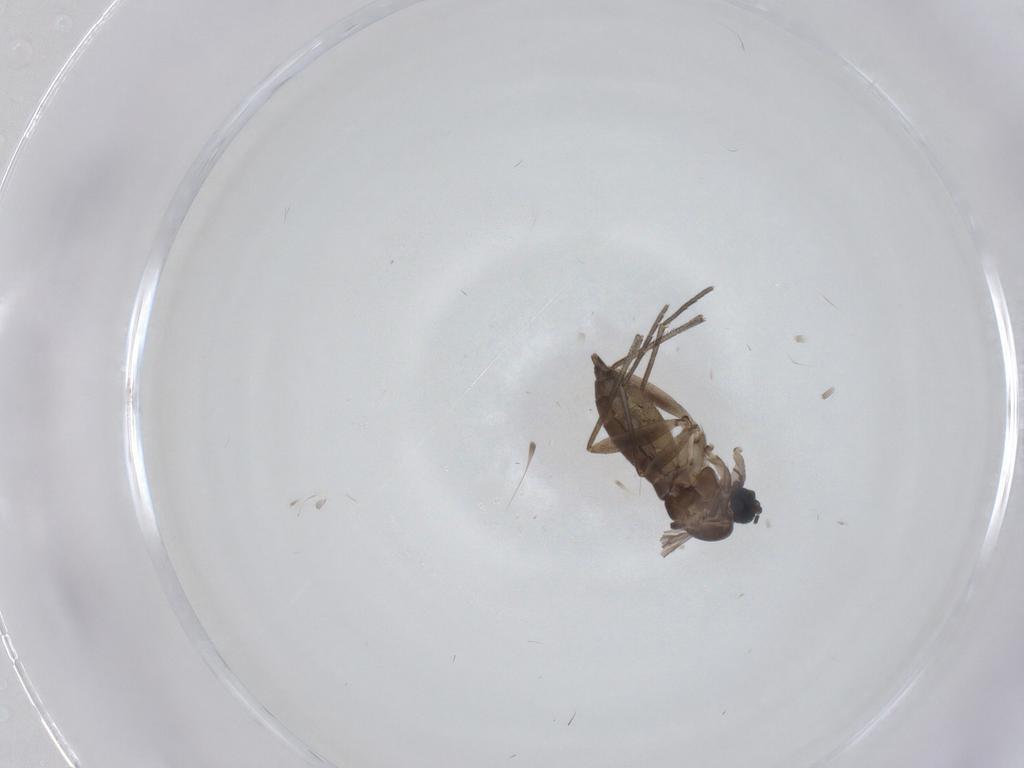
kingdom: Animalia
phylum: Arthropoda
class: Insecta
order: Diptera
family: Sciaridae
